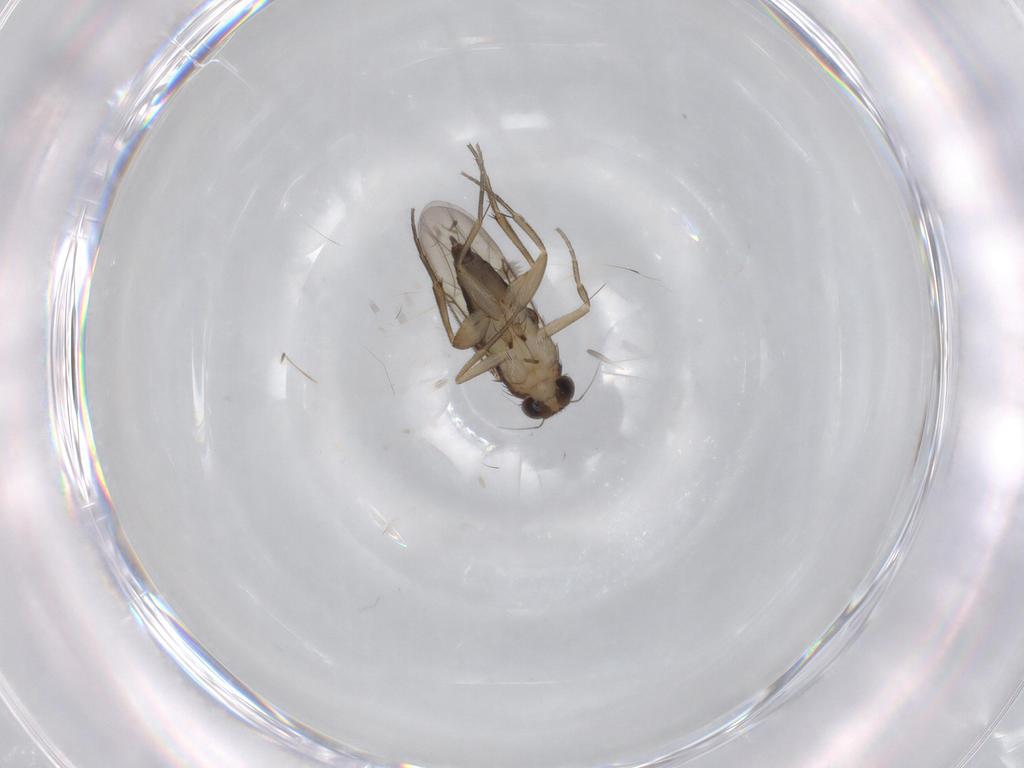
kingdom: Animalia
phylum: Arthropoda
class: Insecta
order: Diptera
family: Phoridae
